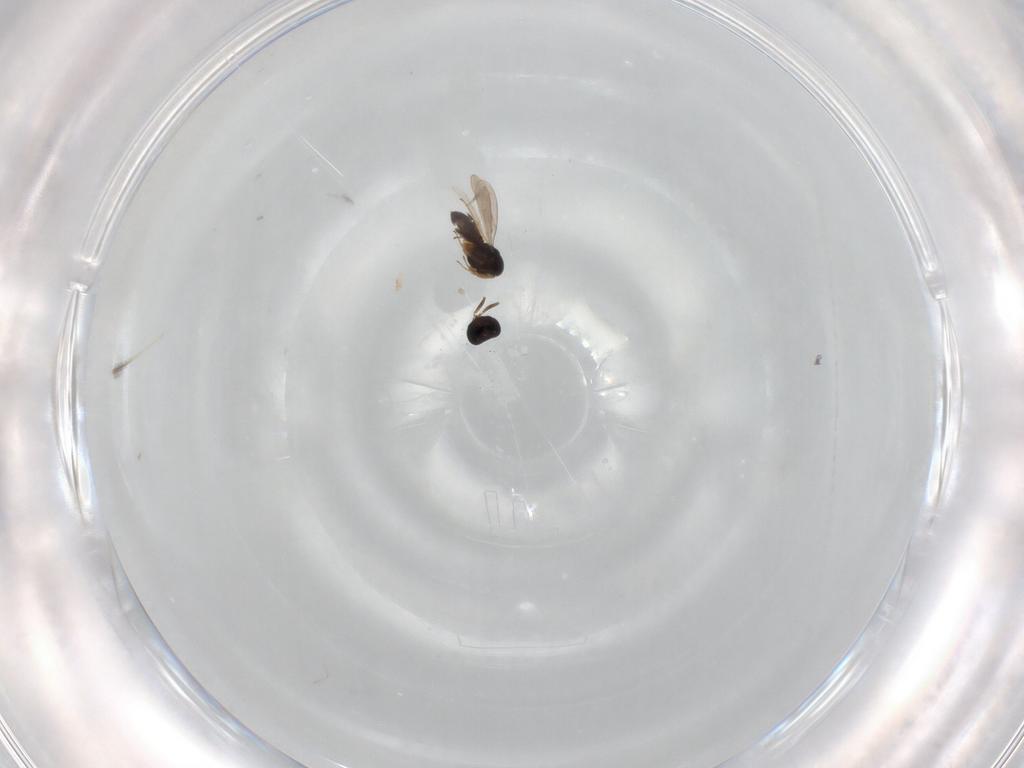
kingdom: Animalia
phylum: Arthropoda
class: Insecta
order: Hymenoptera
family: Scelionidae
